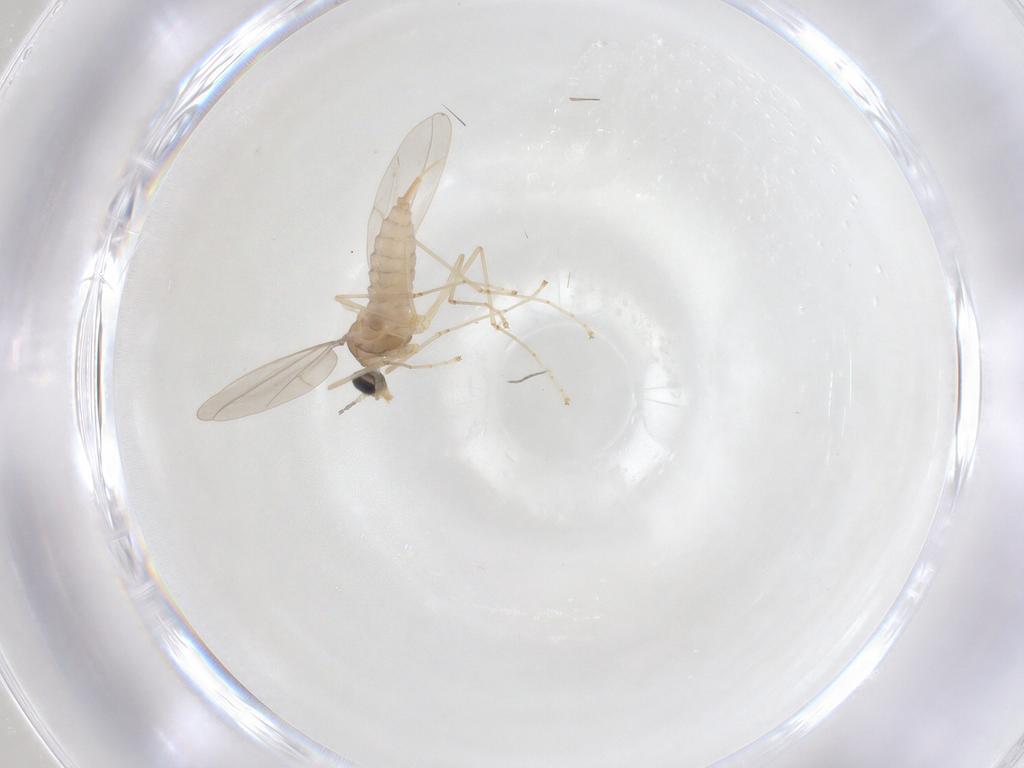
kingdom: Animalia
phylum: Arthropoda
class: Insecta
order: Diptera
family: Cecidomyiidae
